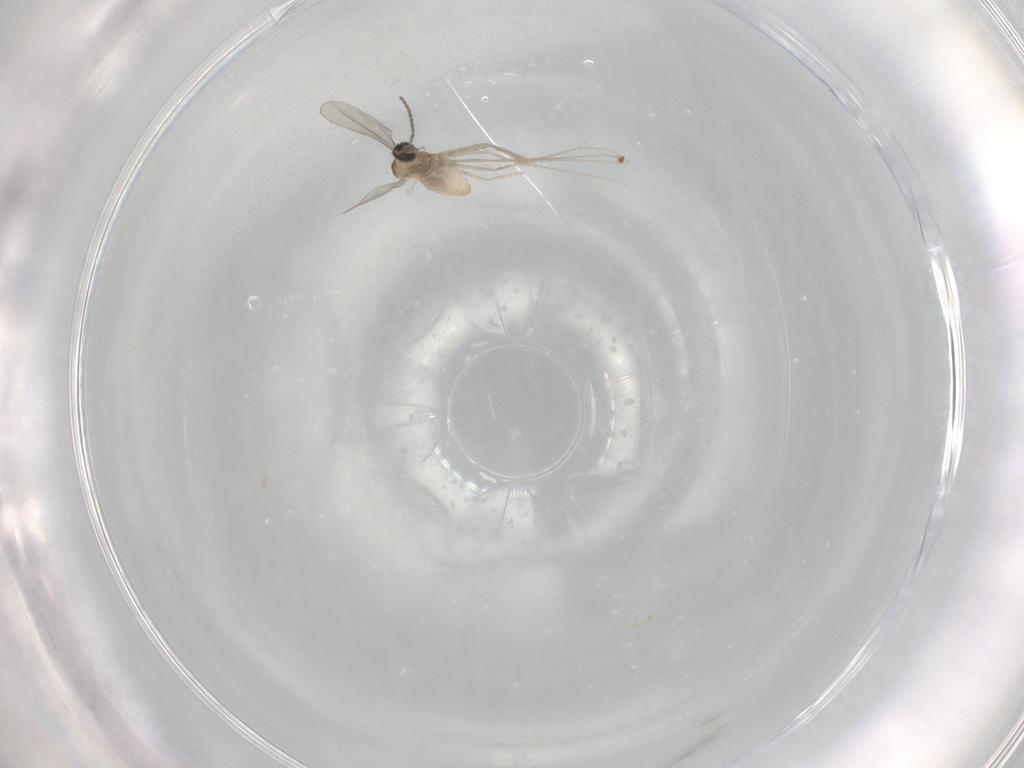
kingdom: Animalia
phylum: Arthropoda
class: Insecta
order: Diptera
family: Cecidomyiidae
